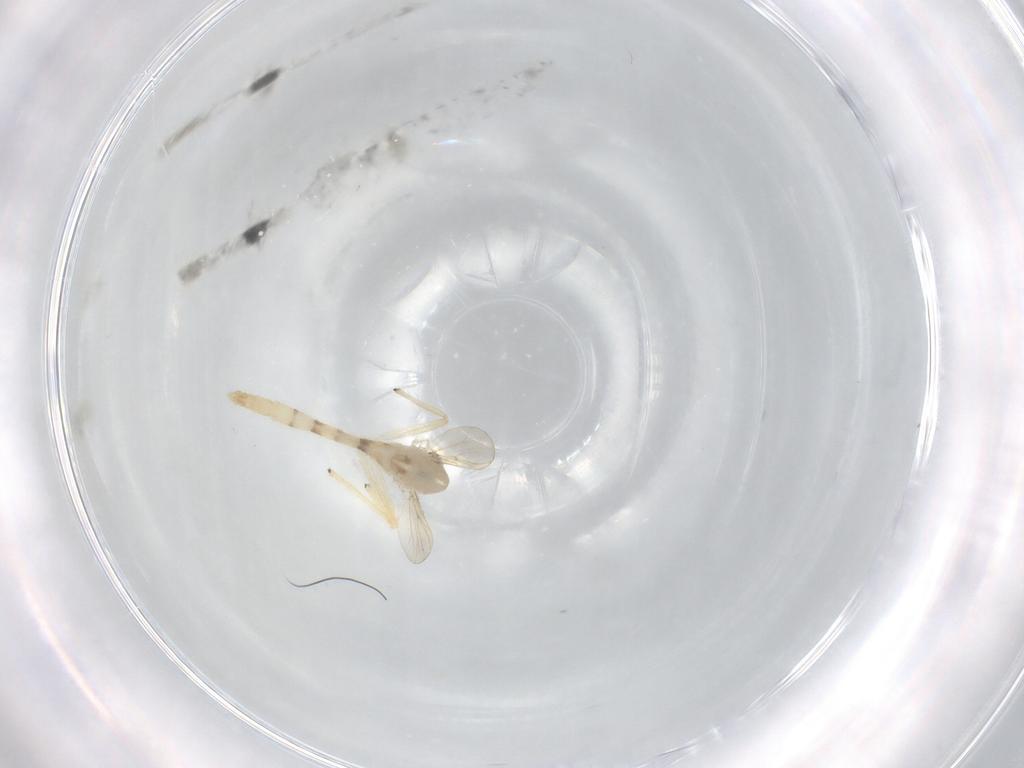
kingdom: Animalia
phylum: Arthropoda
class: Insecta
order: Diptera
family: Chironomidae
